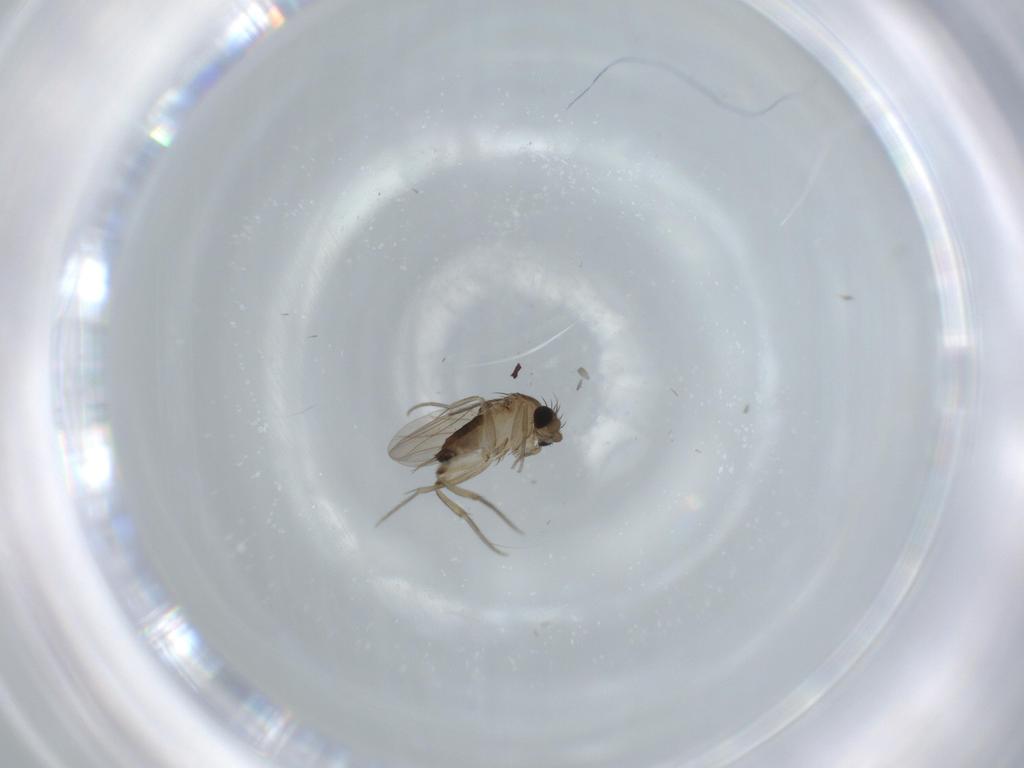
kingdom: Animalia
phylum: Arthropoda
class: Insecta
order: Diptera
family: Phoridae
